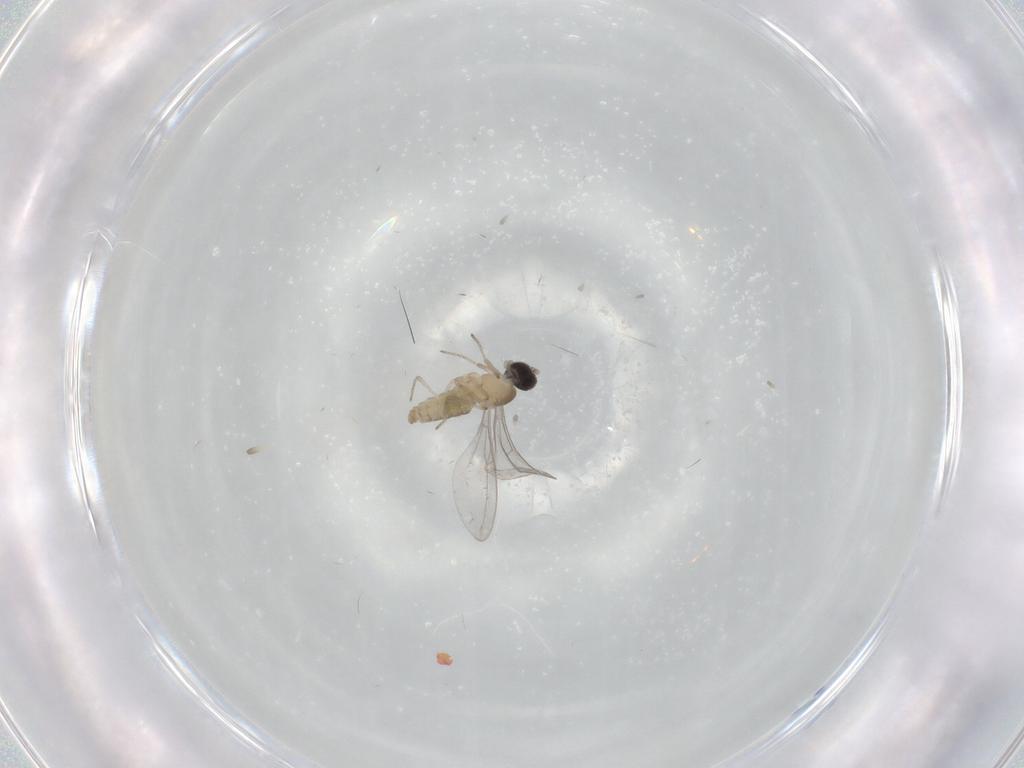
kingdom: Animalia
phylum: Arthropoda
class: Insecta
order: Diptera
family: Cecidomyiidae
